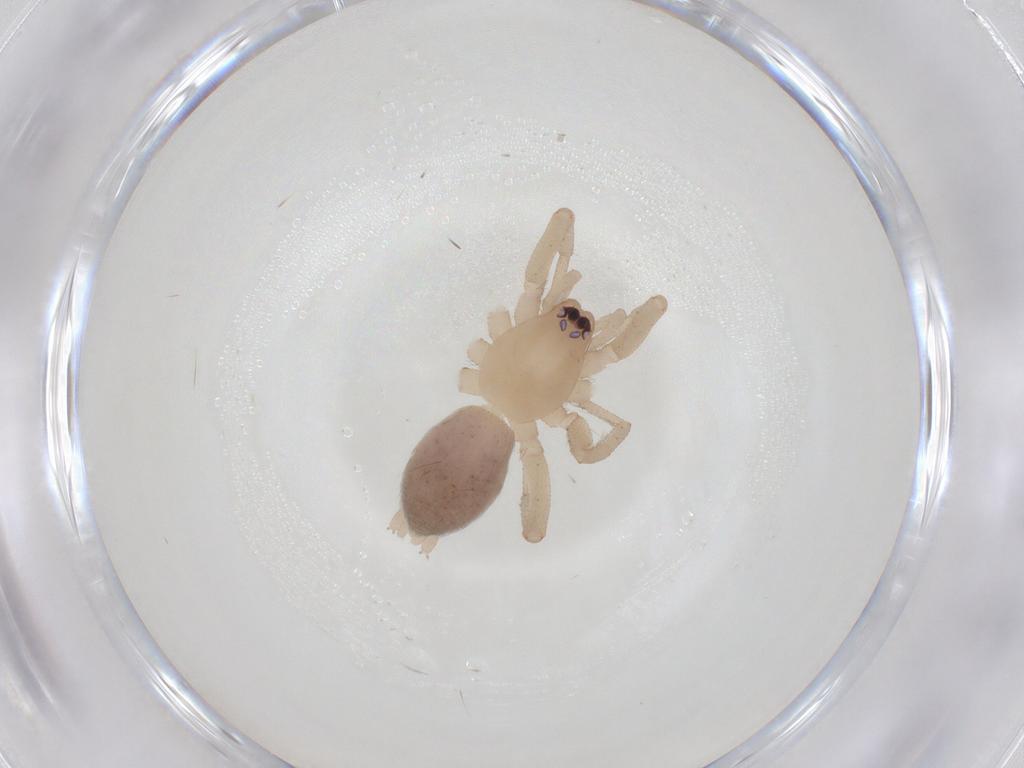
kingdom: Animalia
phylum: Arthropoda
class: Arachnida
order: Araneae
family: Gnaphosidae
